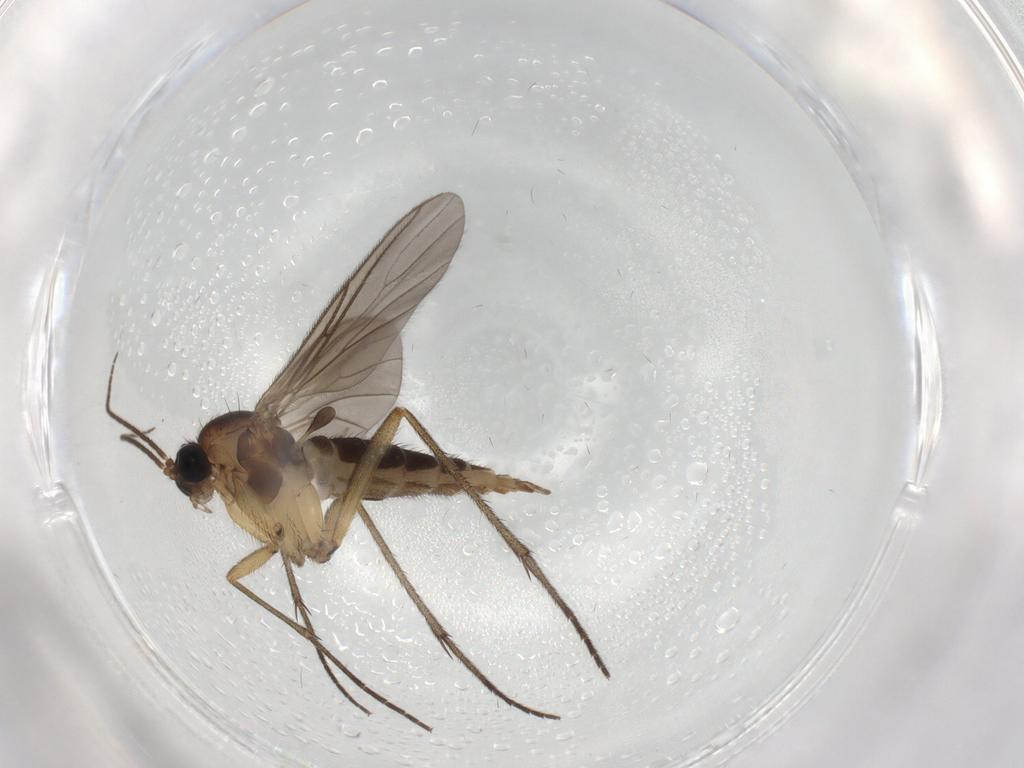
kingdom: Animalia
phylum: Arthropoda
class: Insecta
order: Diptera
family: Sciaridae
